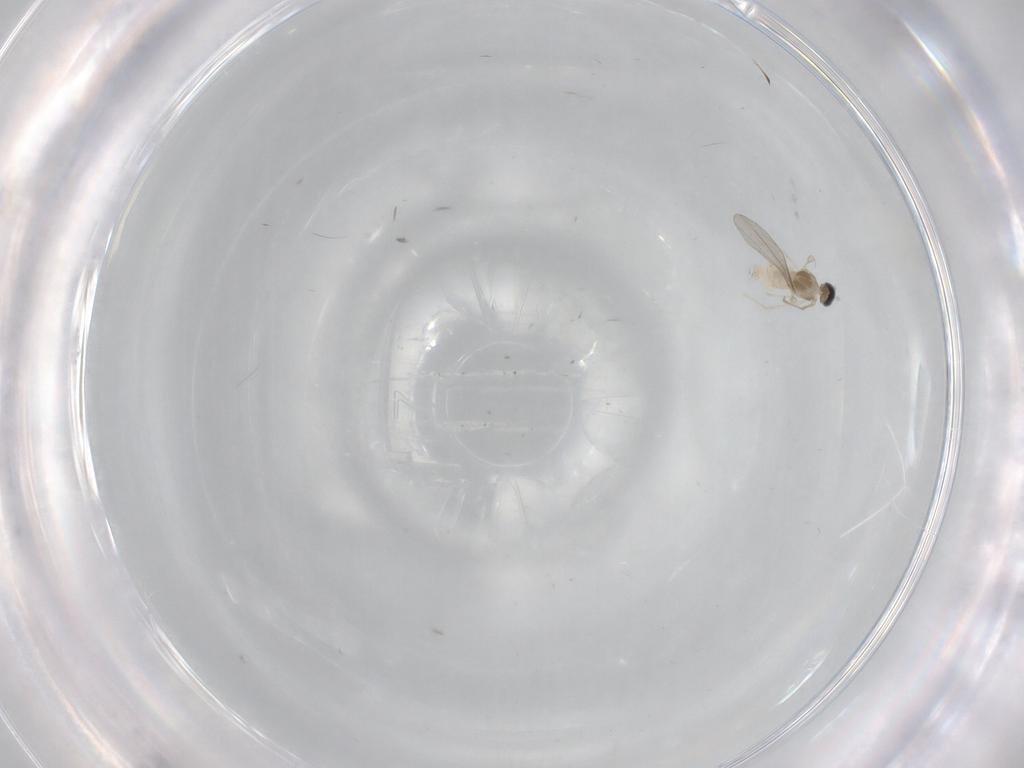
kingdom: Animalia
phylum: Arthropoda
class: Insecta
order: Diptera
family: Cecidomyiidae
